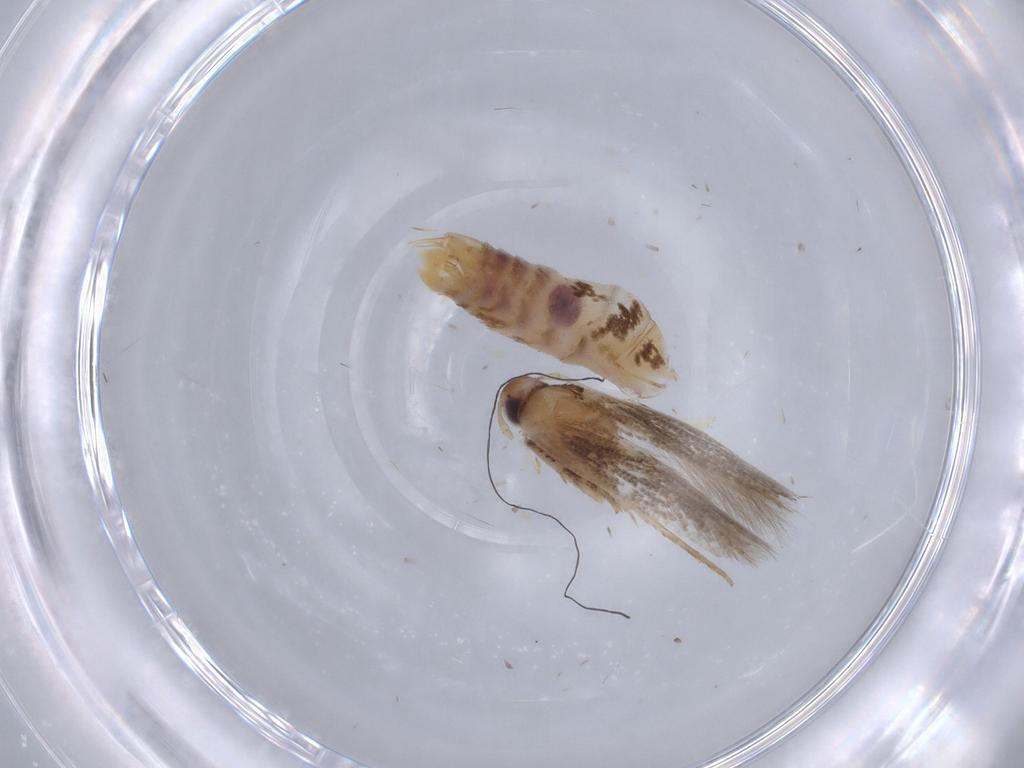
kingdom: Animalia
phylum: Arthropoda
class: Insecta
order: Lepidoptera
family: Gelechiidae
